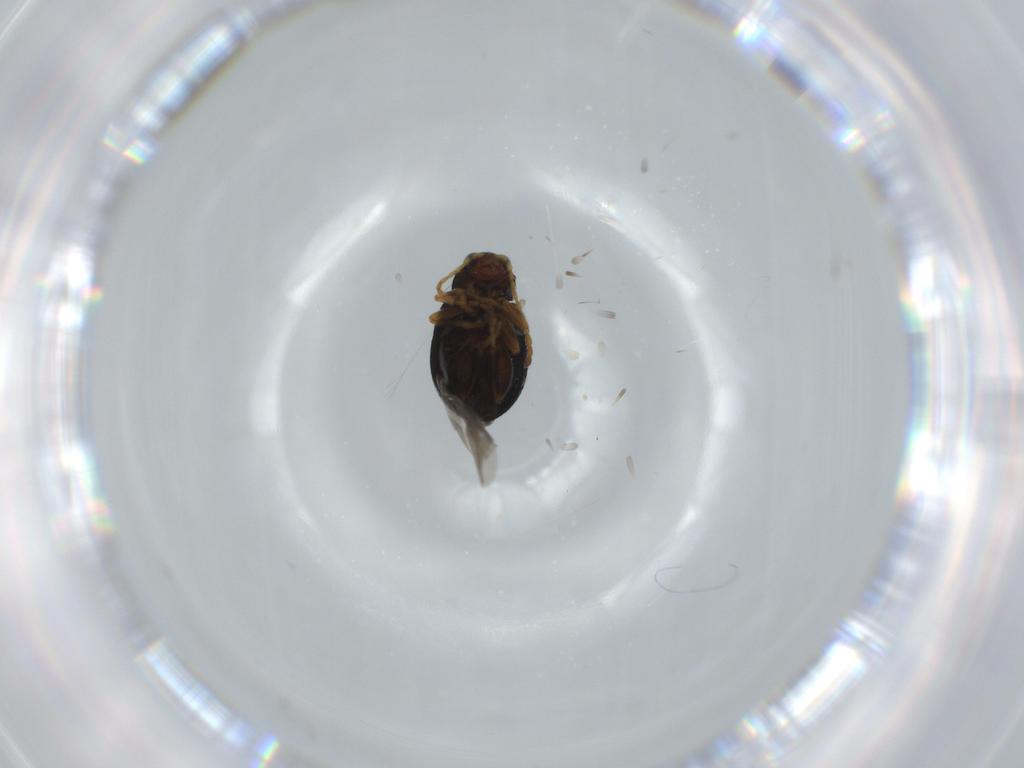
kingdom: Animalia
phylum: Arthropoda
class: Insecta
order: Coleoptera
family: Chrysomelidae
